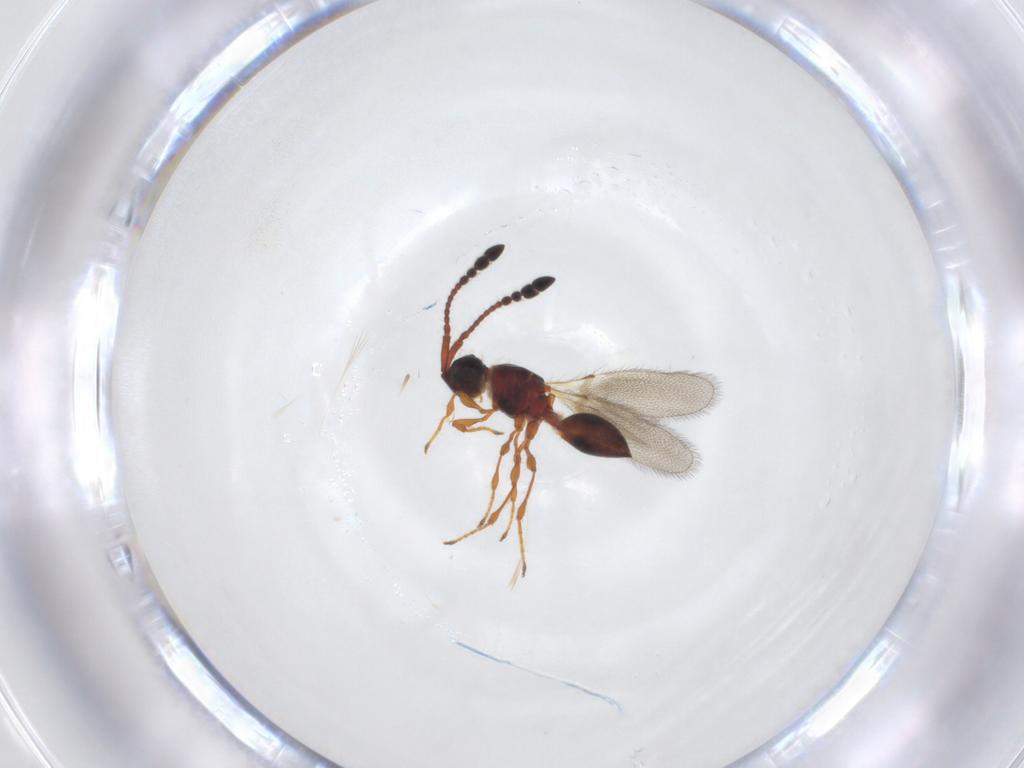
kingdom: Animalia
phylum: Arthropoda
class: Insecta
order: Hymenoptera
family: Diapriidae
